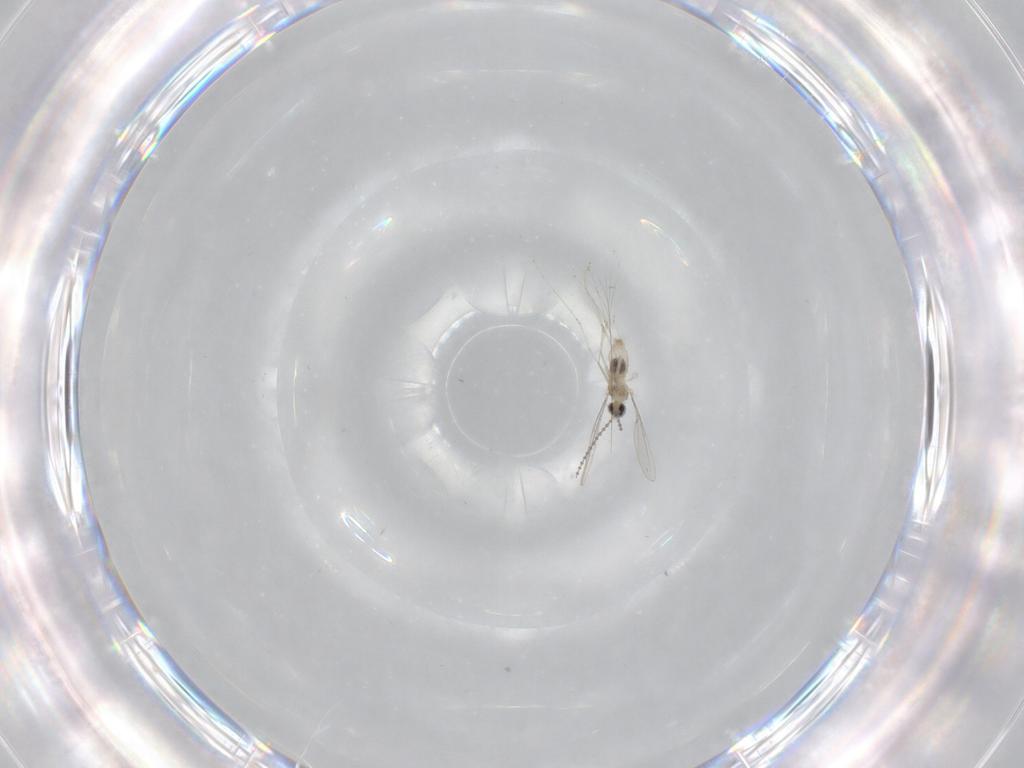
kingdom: Animalia
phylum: Arthropoda
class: Insecta
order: Diptera
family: Cecidomyiidae
